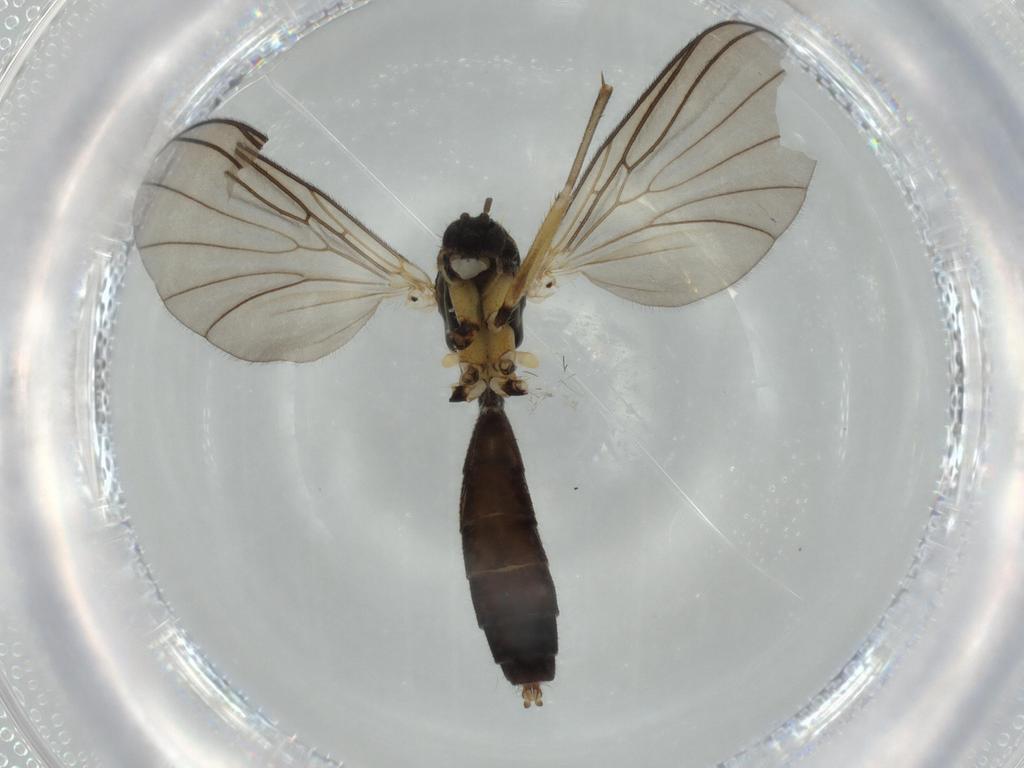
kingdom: Animalia
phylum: Arthropoda
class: Insecta
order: Diptera
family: Mycetophilidae
